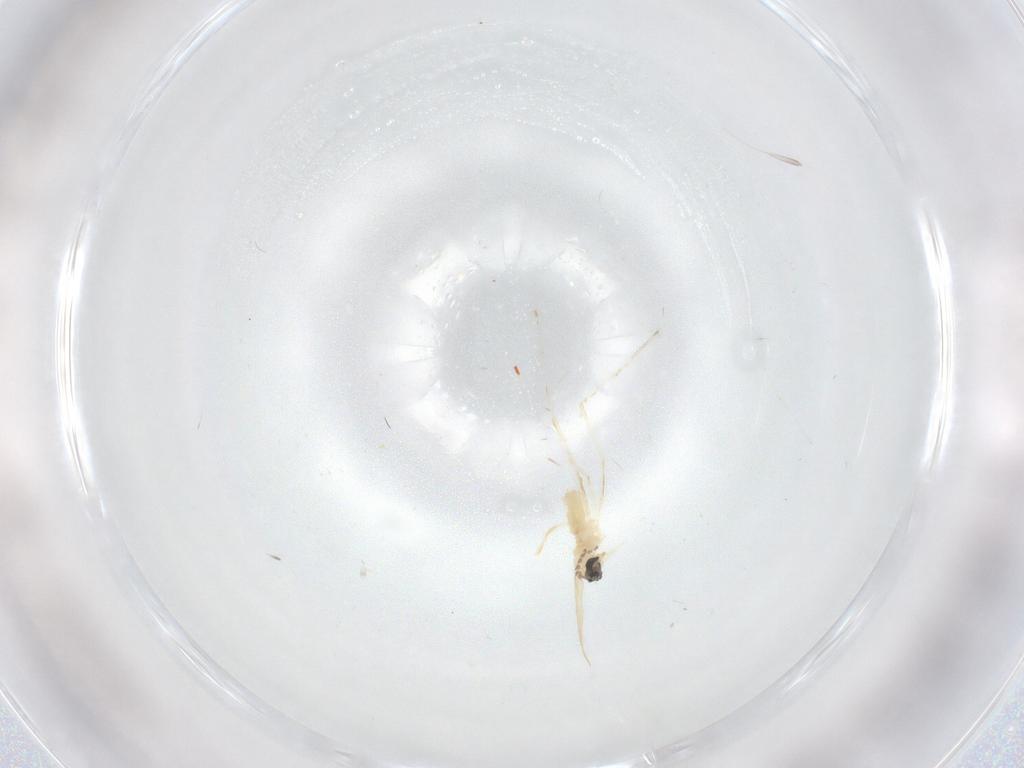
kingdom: Animalia
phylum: Arthropoda
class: Insecta
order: Diptera
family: Cecidomyiidae
